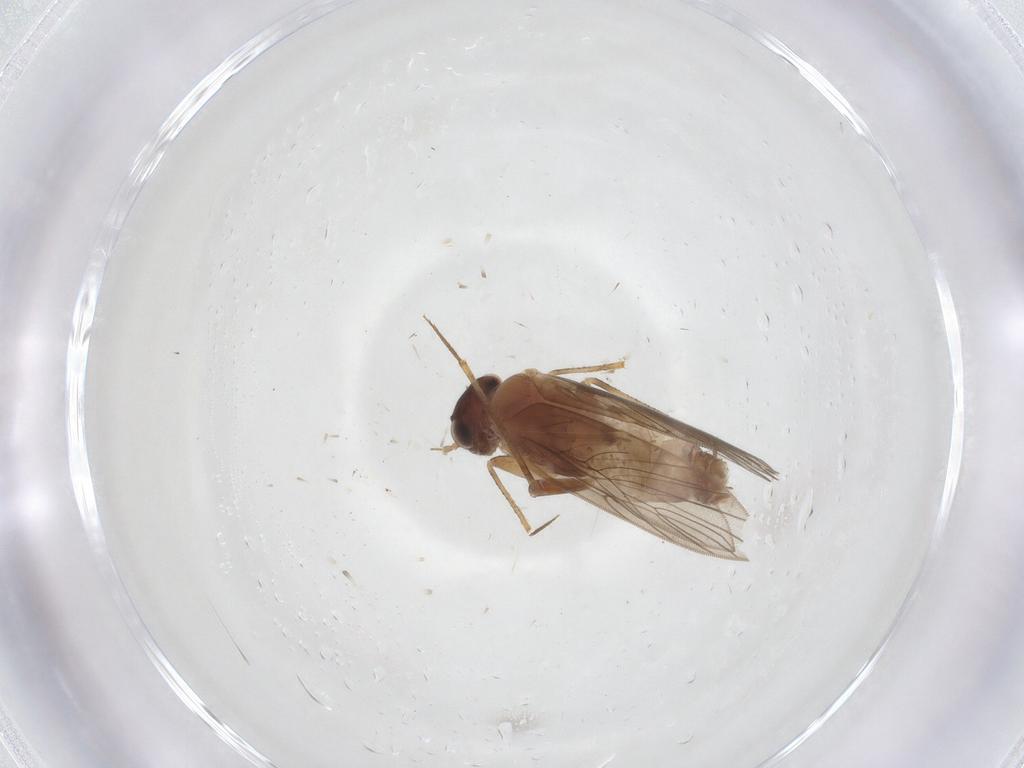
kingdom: Animalia
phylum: Arthropoda
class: Insecta
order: Psocodea
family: Lepidopsocidae
